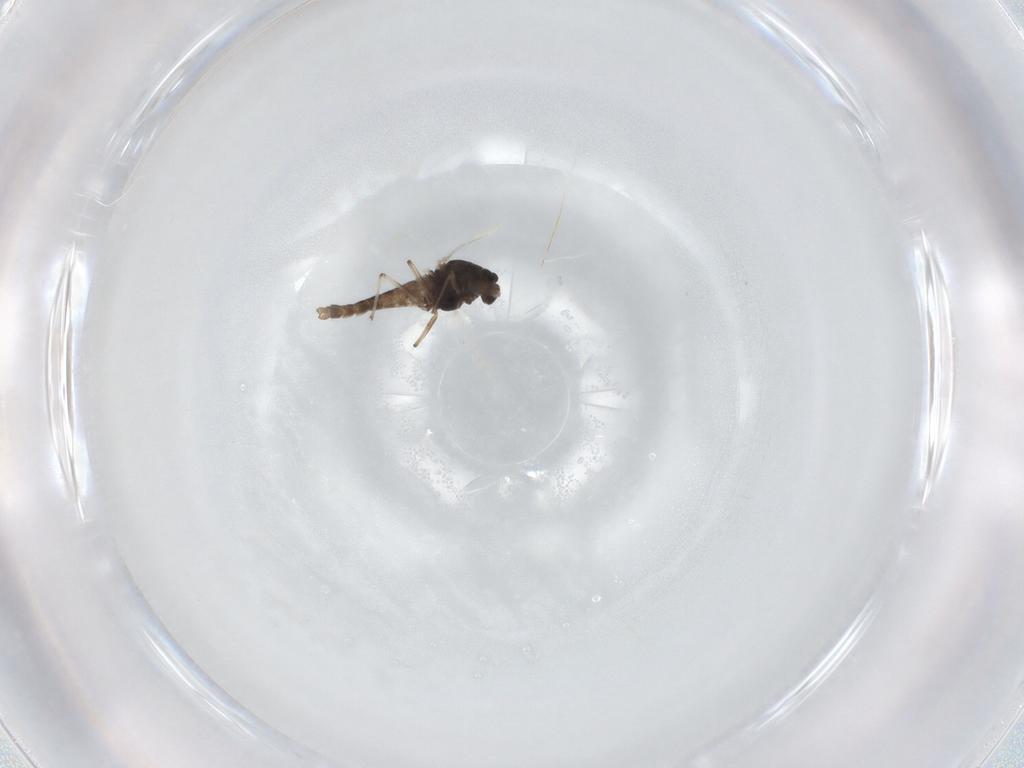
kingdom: Animalia
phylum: Arthropoda
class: Insecta
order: Diptera
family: Chironomidae
